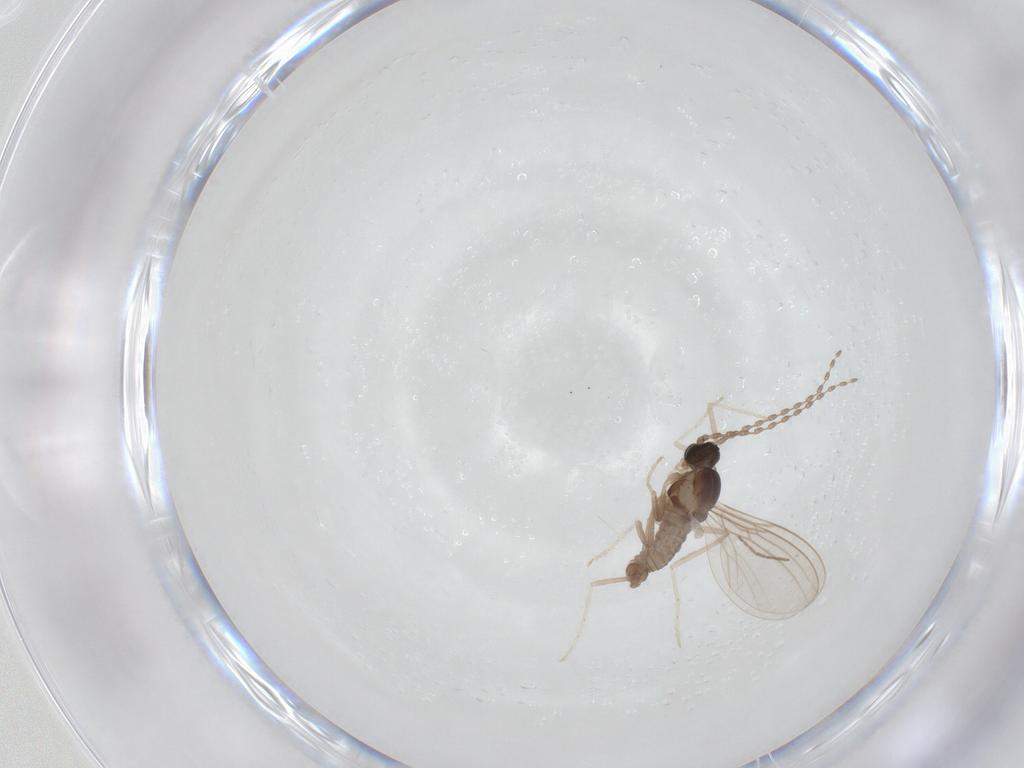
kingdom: Animalia
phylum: Arthropoda
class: Insecta
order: Diptera
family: Cecidomyiidae
